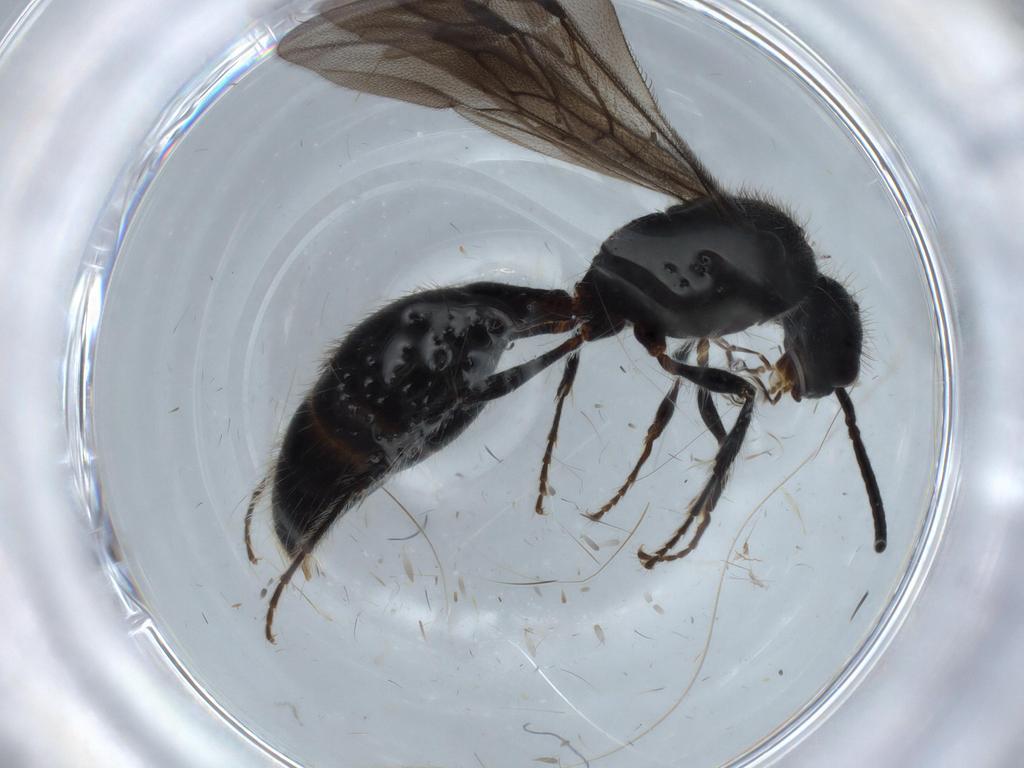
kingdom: Animalia
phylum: Arthropoda
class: Insecta
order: Hymenoptera
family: Mutillidae
